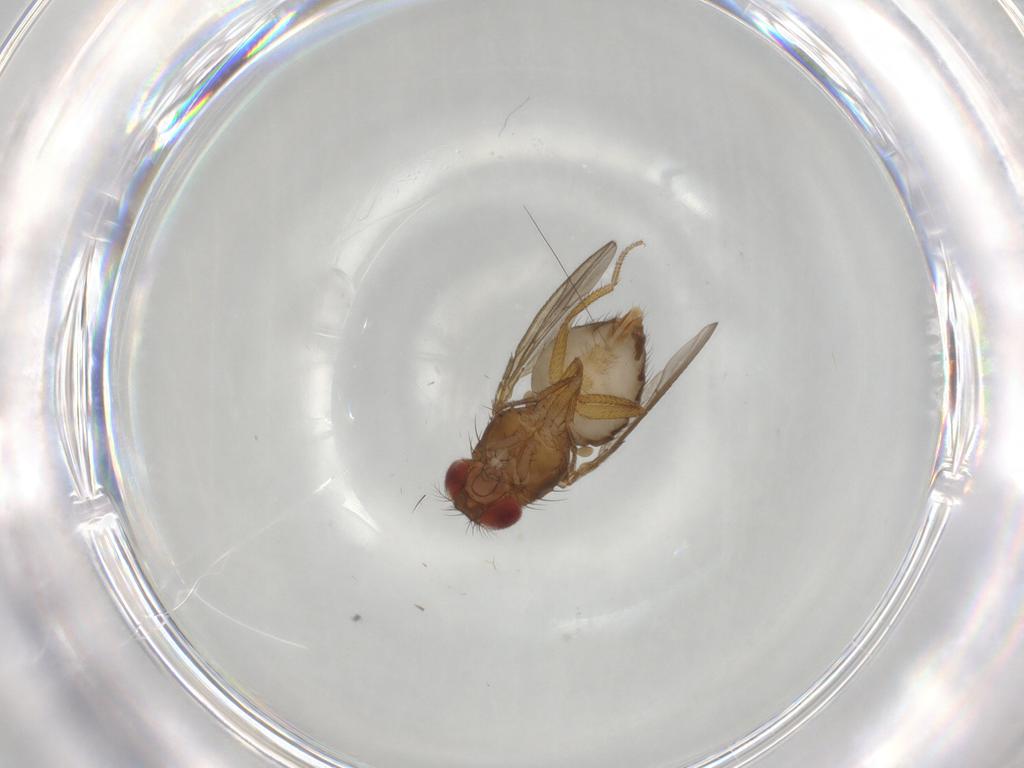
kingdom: Animalia
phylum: Arthropoda
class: Insecta
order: Diptera
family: Drosophilidae
